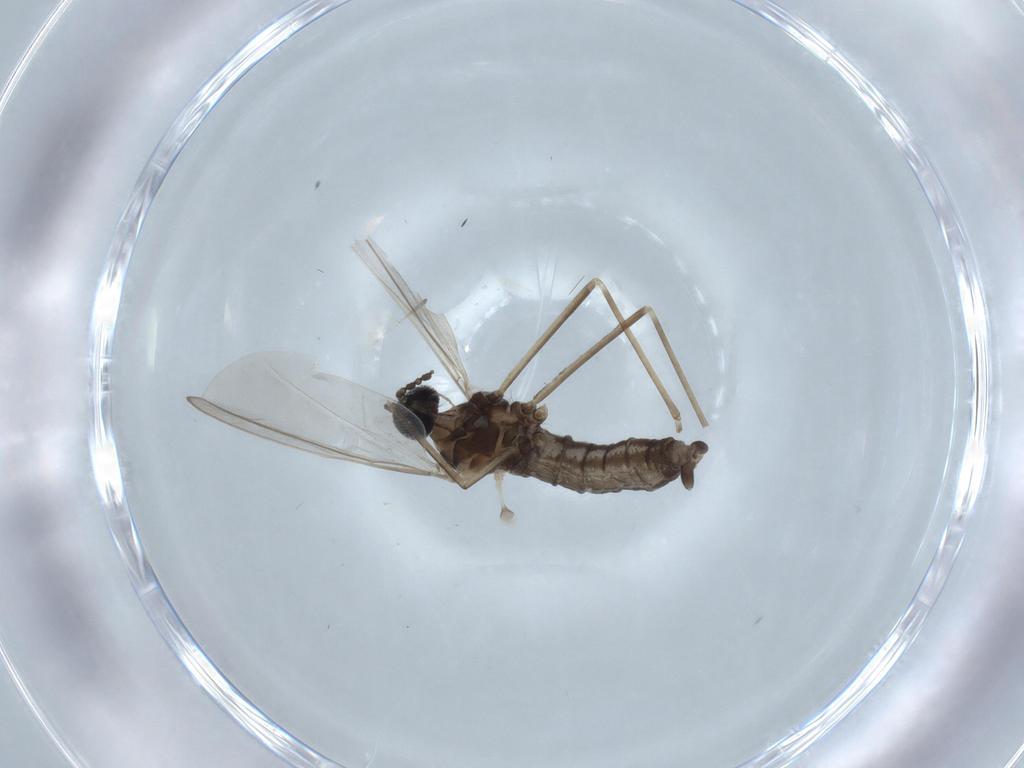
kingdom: Animalia
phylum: Arthropoda
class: Insecta
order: Diptera
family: Cecidomyiidae
